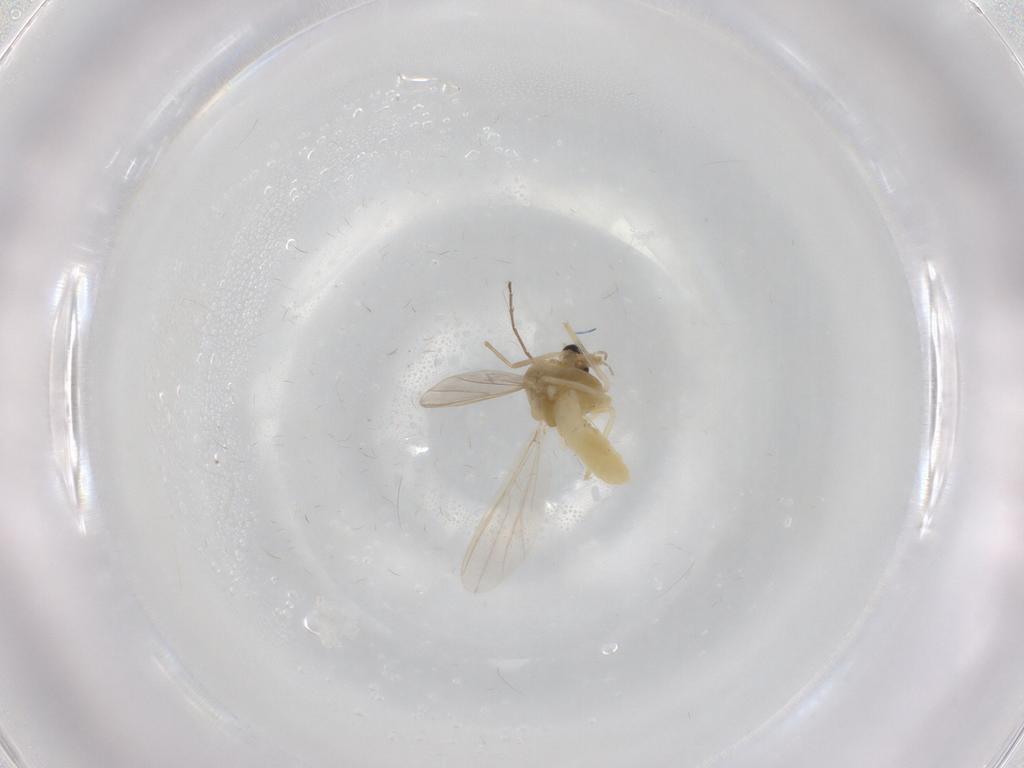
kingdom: Animalia
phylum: Arthropoda
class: Insecta
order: Diptera
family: Chironomidae
